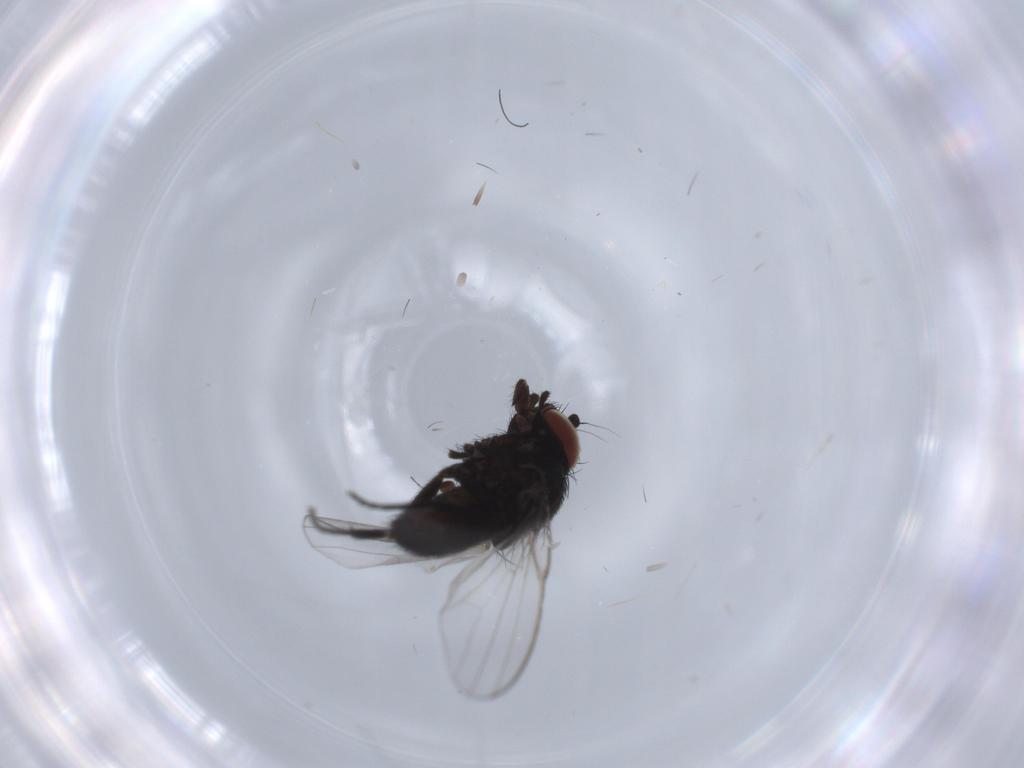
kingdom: Animalia
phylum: Arthropoda
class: Insecta
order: Diptera
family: Milichiidae
